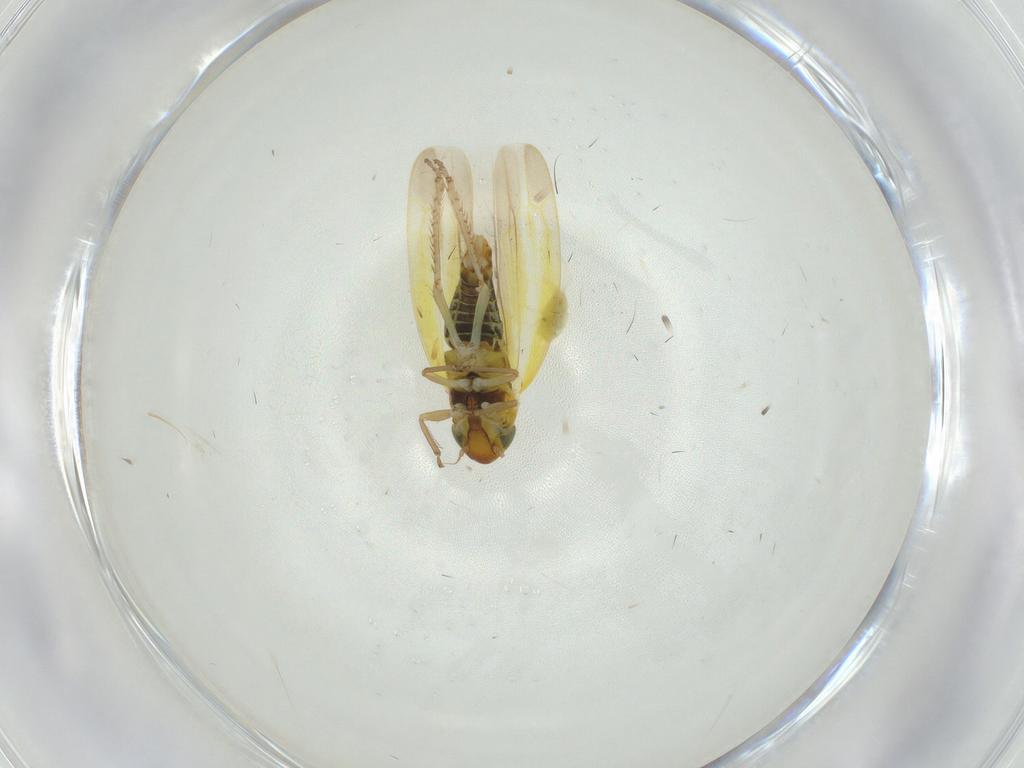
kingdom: Animalia
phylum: Arthropoda
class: Insecta
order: Hemiptera
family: Cicadellidae
